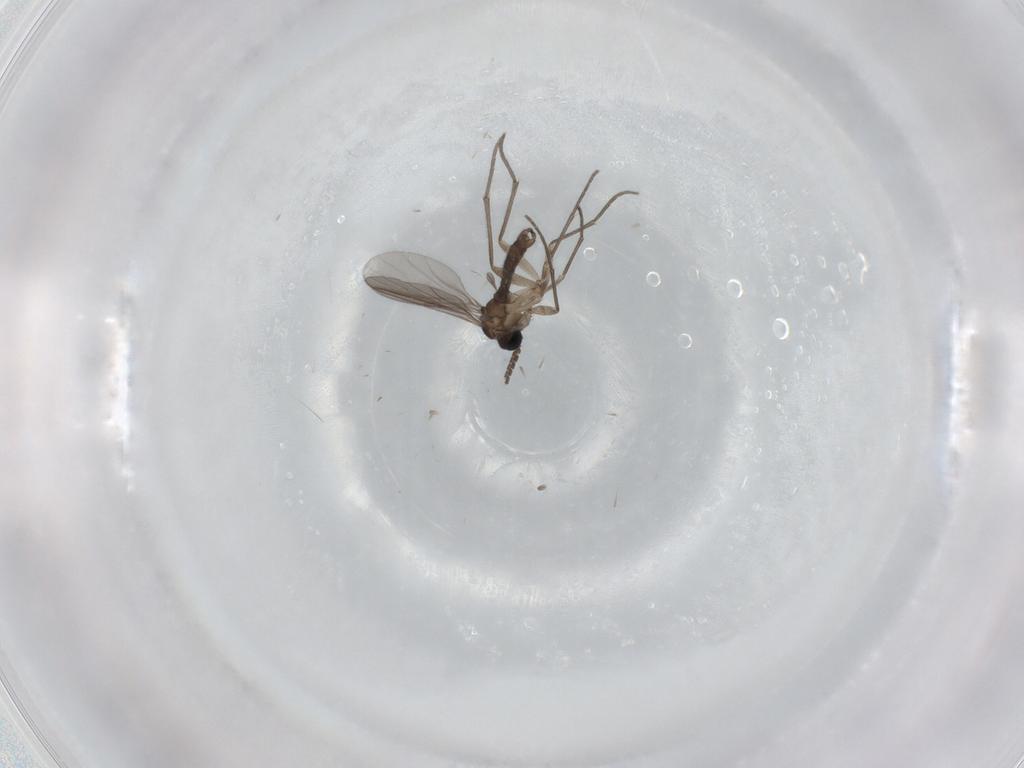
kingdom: Animalia
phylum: Arthropoda
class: Insecta
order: Diptera
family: Sciaridae
